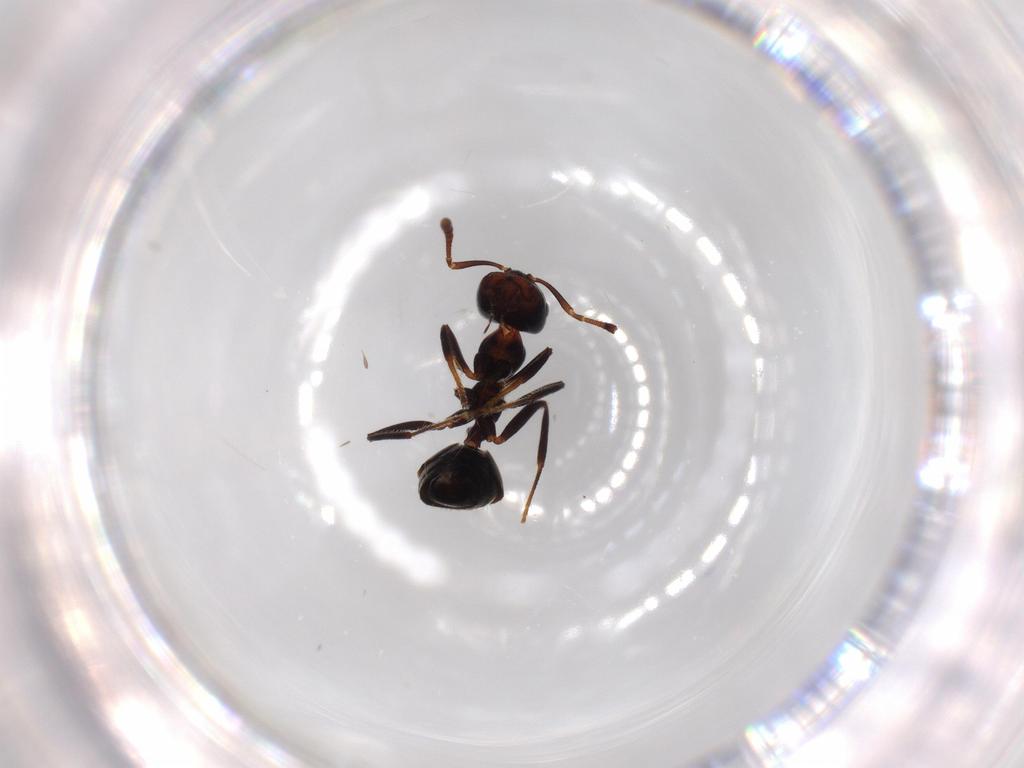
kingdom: Animalia
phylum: Arthropoda
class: Insecta
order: Hymenoptera
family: Formicidae
